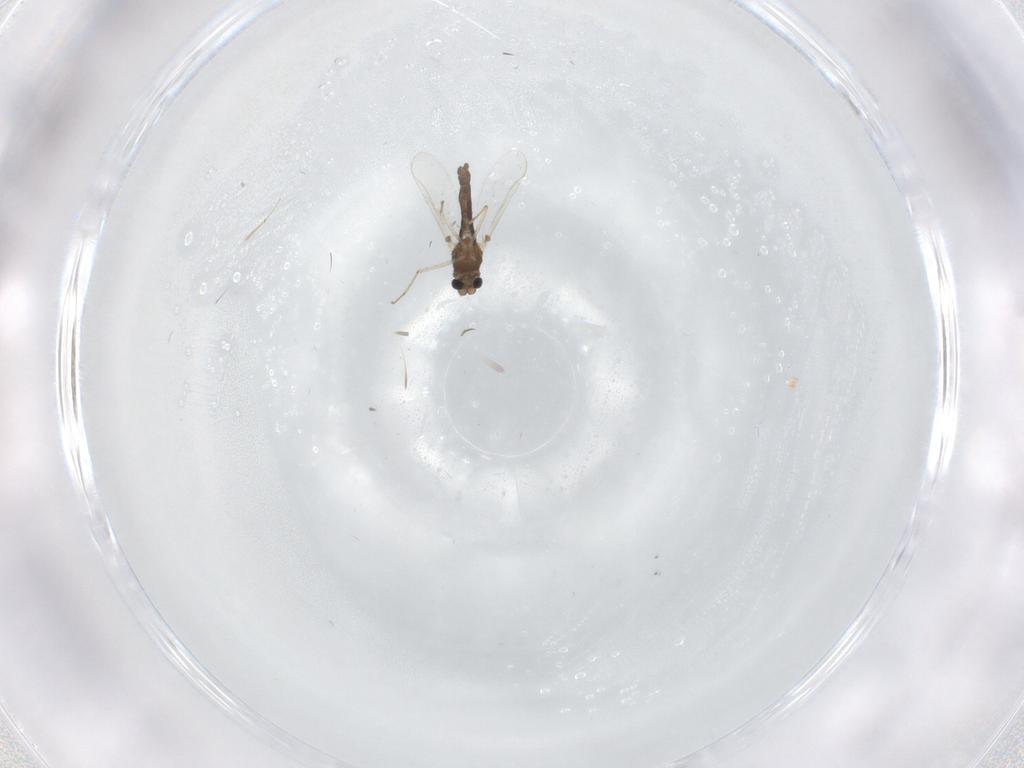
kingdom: Animalia
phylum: Arthropoda
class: Insecta
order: Diptera
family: Chironomidae
